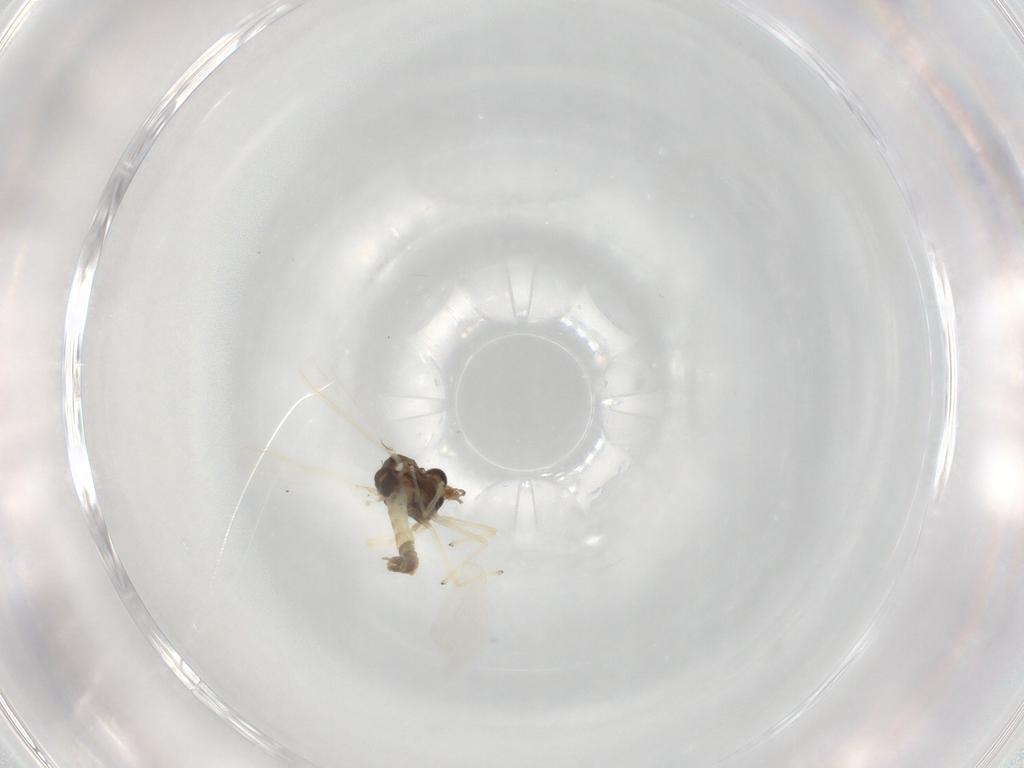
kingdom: Animalia
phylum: Arthropoda
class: Insecta
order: Diptera
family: Chironomidae
